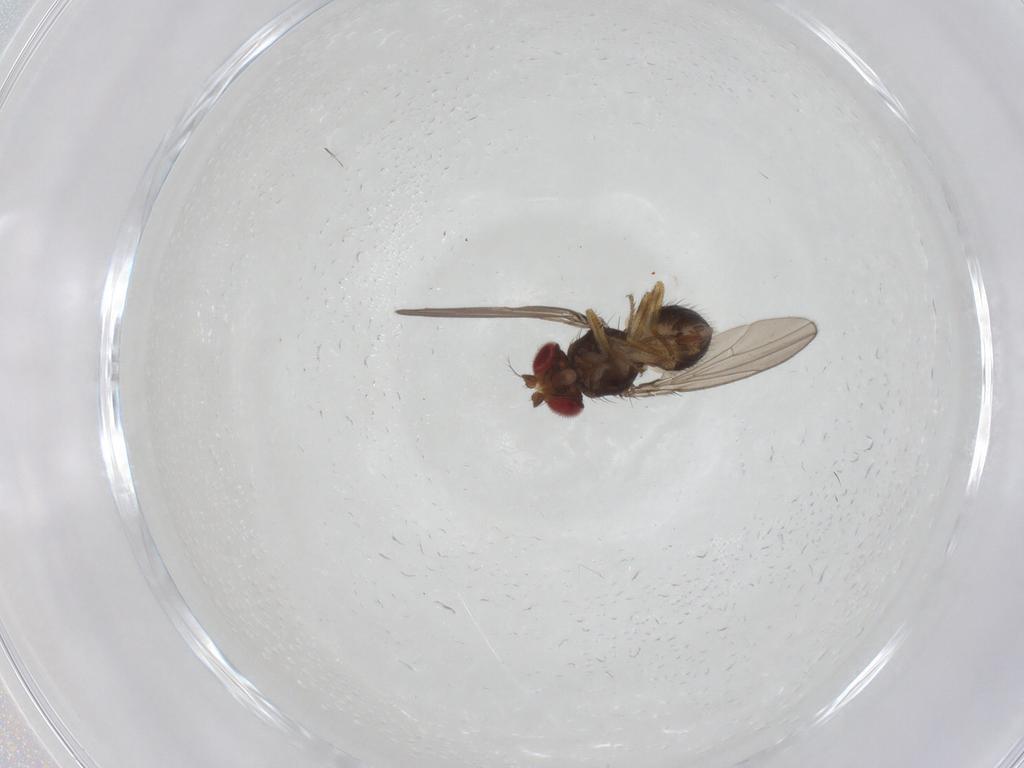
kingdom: Animalia
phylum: Arthropoda
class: Insecta
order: Diptera
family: Drosophilidae
